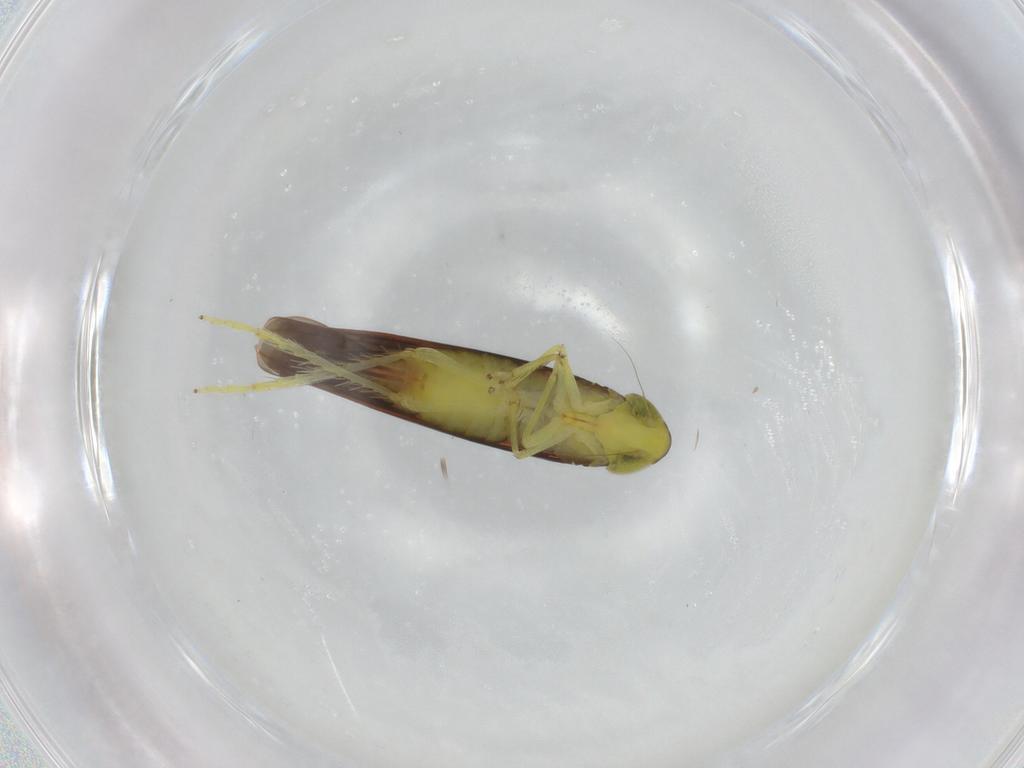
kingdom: Animalia
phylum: Arthropoda
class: Insecta
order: Hemiptera
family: Cicadellidae
